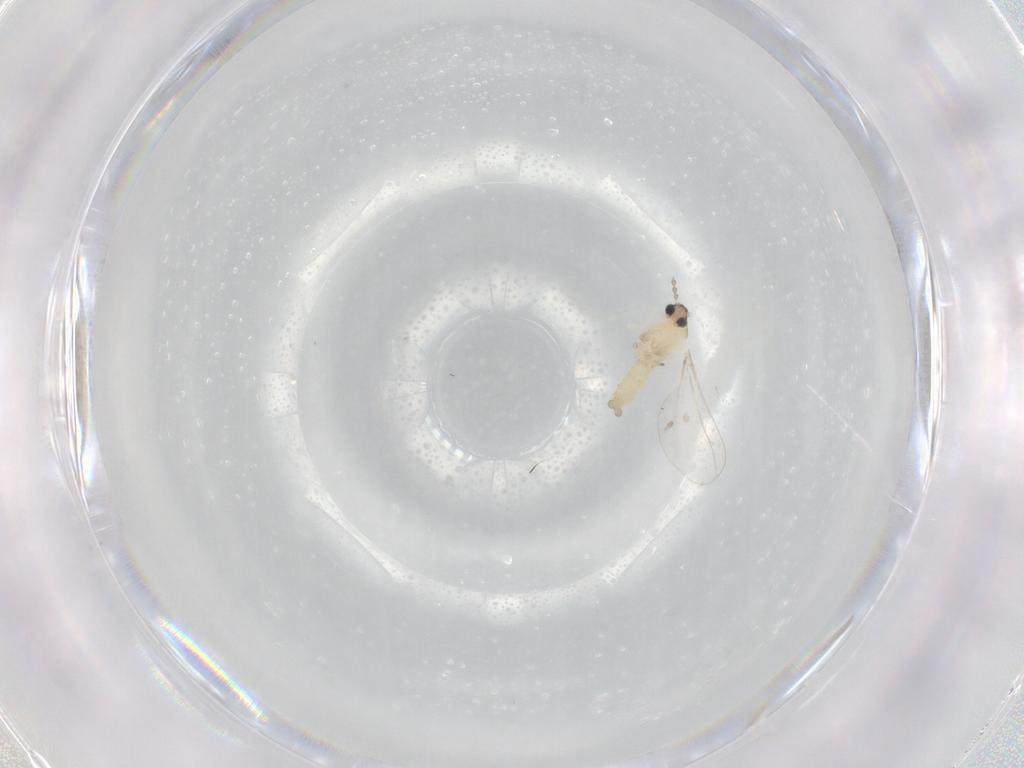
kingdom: Animalia
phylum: Arthropoda
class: Insecta
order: Diptera
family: Cecidomyiidae
